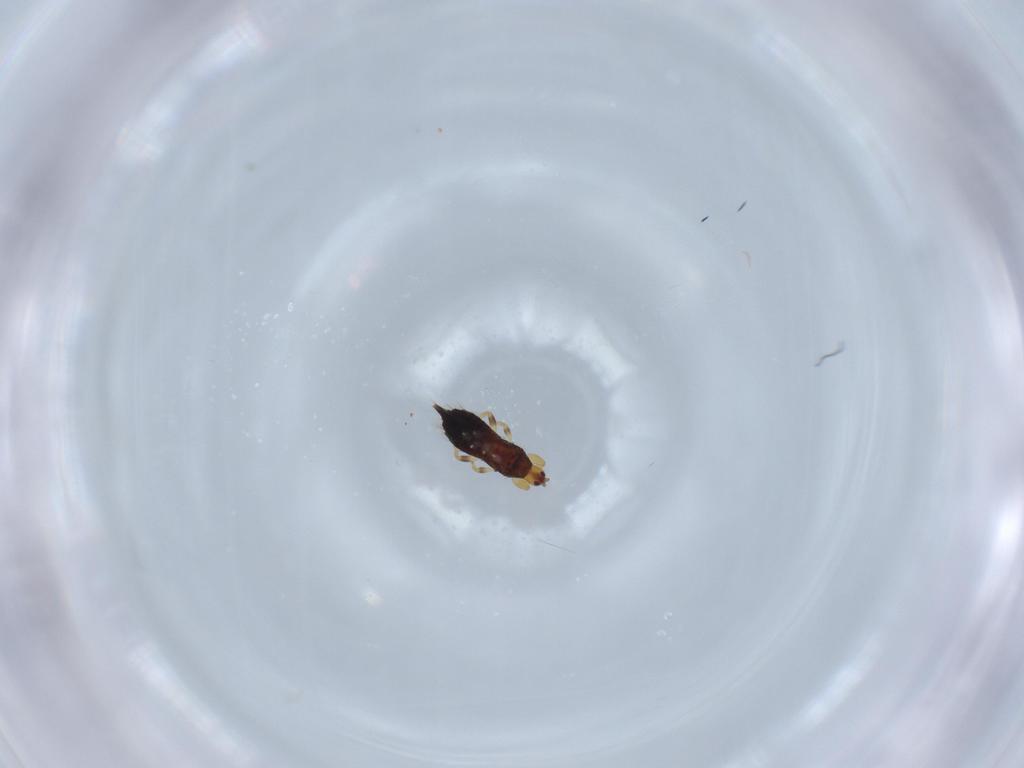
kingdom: Animalia
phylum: Arthropoda
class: Insecta
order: Thysanoptera
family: Phlaeothripidae
